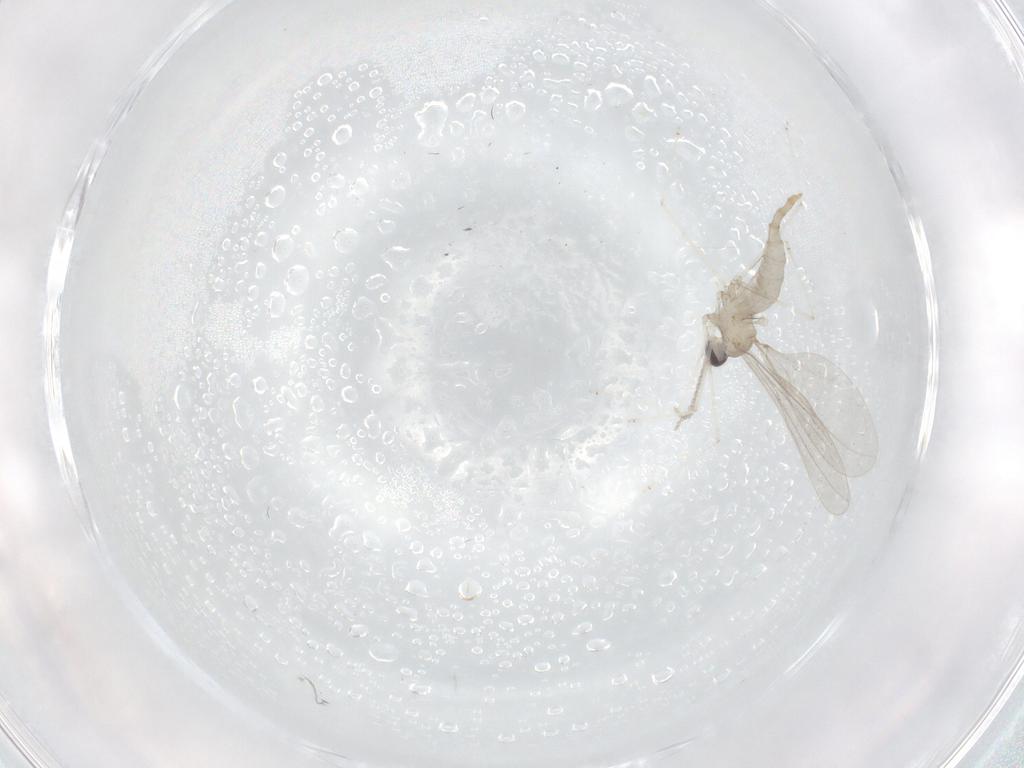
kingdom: Animalia
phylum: Arthropoda
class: Insecta
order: Diptera
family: Cecidomyiidae
